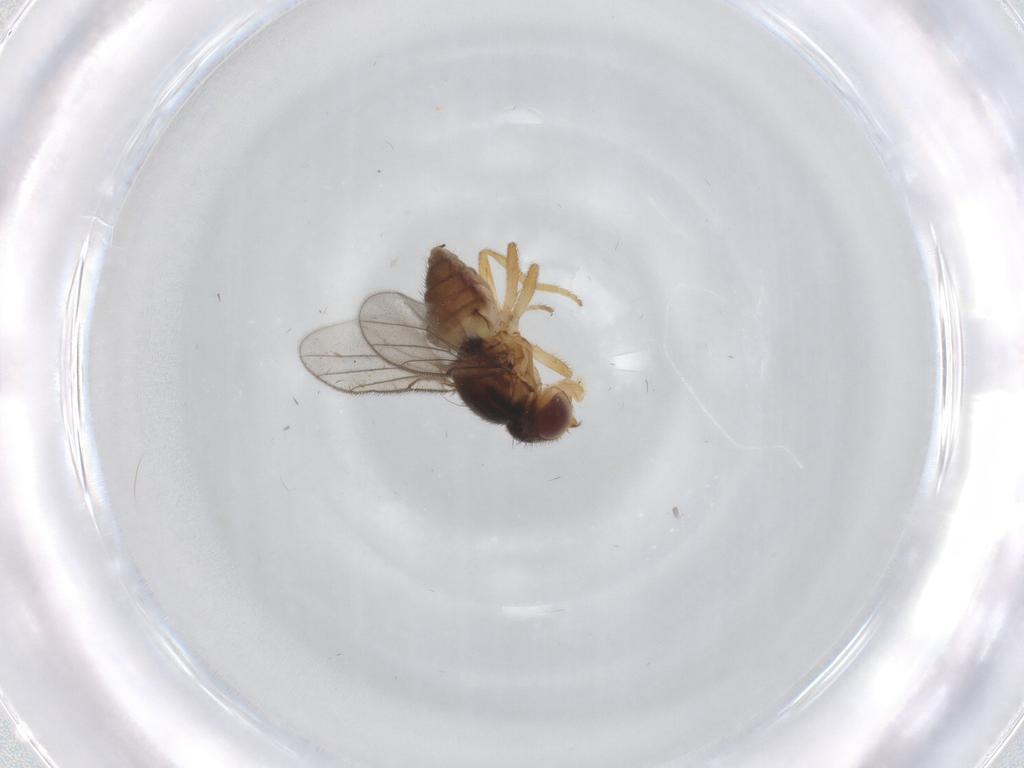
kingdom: Animalia
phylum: Arthropoda
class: Insecta
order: Diptera
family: Chloropidae
